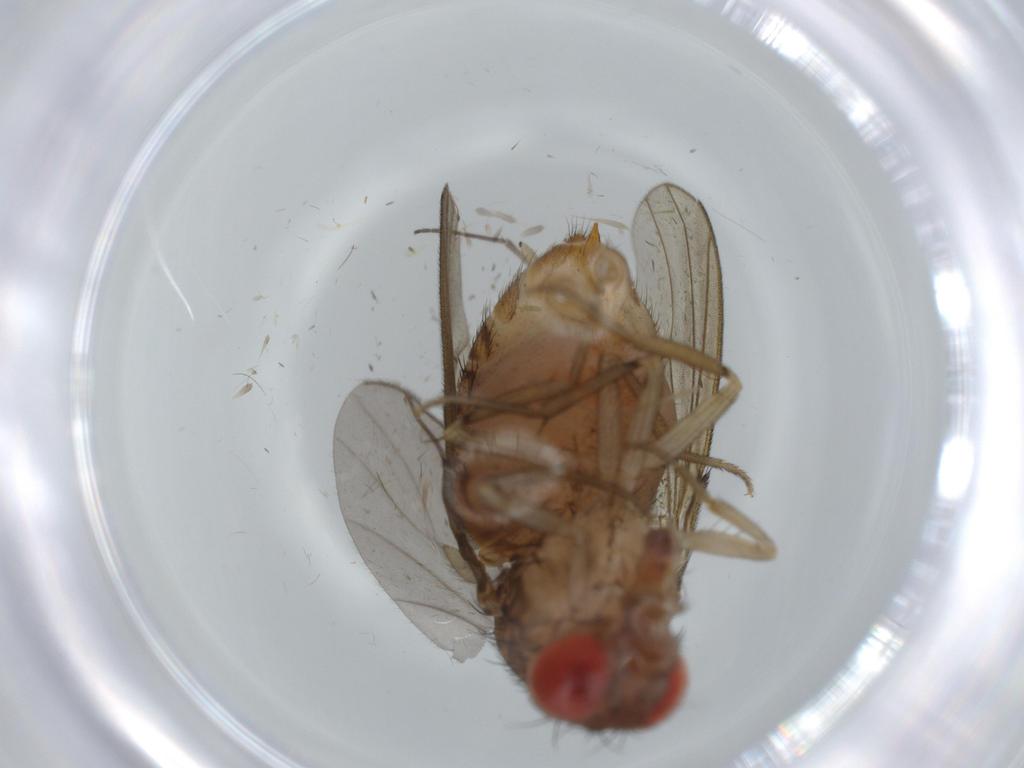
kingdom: Animalia
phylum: Arthropoda
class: Insecta
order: Diptera
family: Drosophilidae
